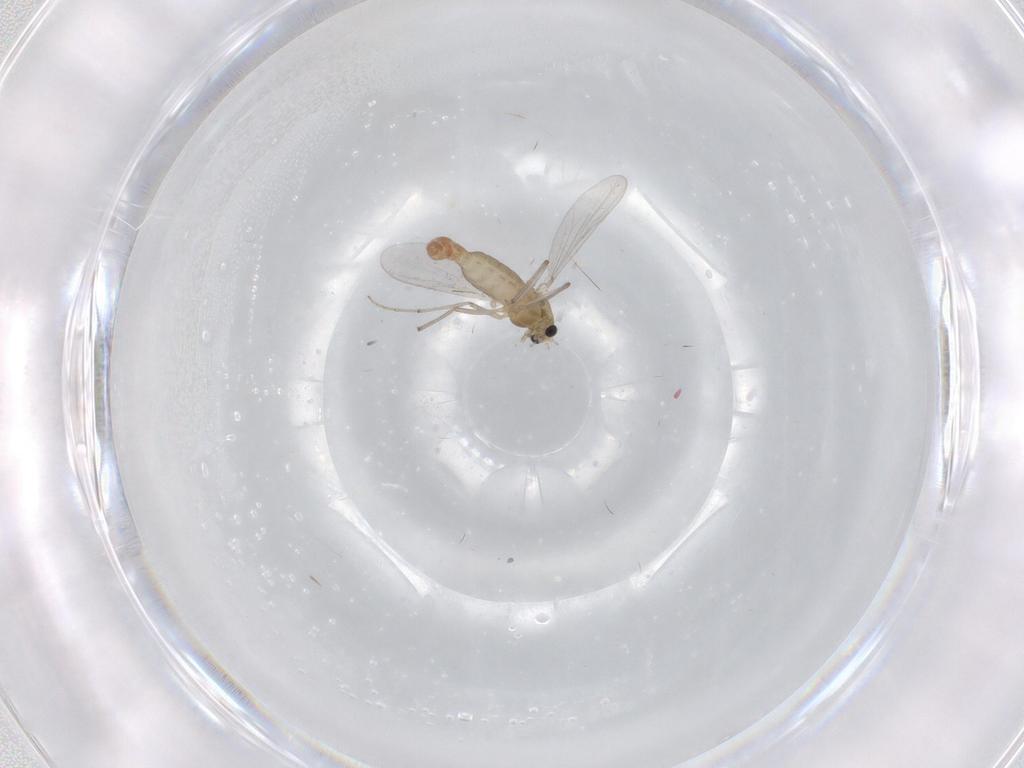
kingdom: Animalia
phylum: Arthropoda
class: Insecta
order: Diptera
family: Chironomidae
